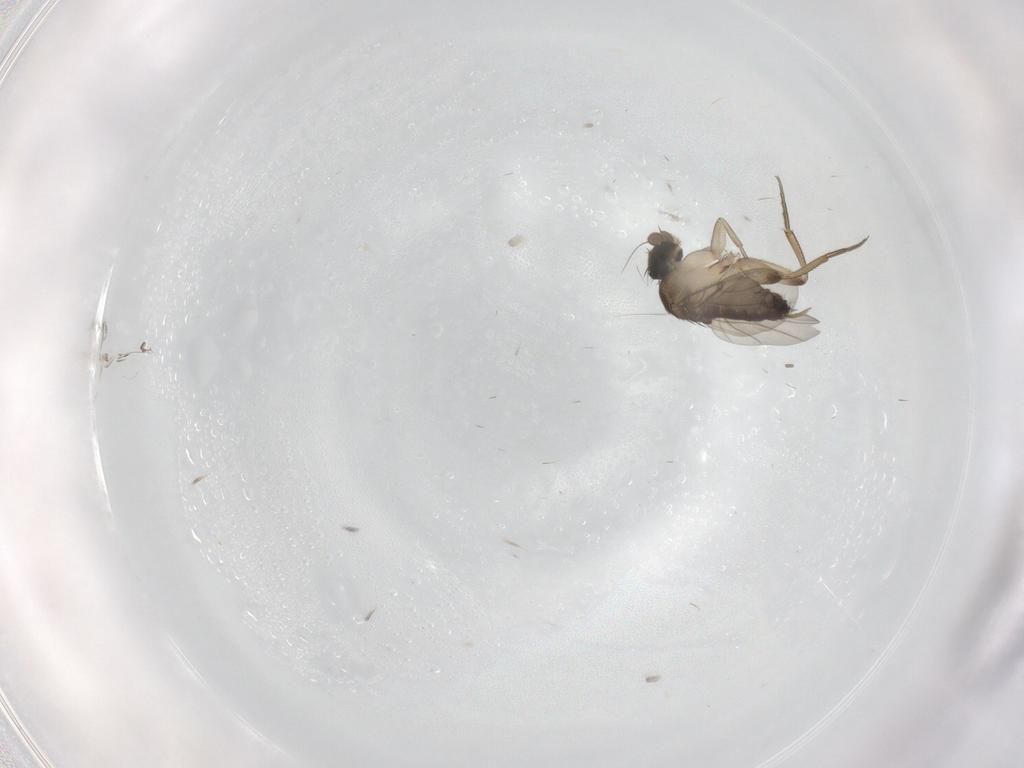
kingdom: Animalia
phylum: Arthropoda
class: Insecta
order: Diptera
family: Phoridae
